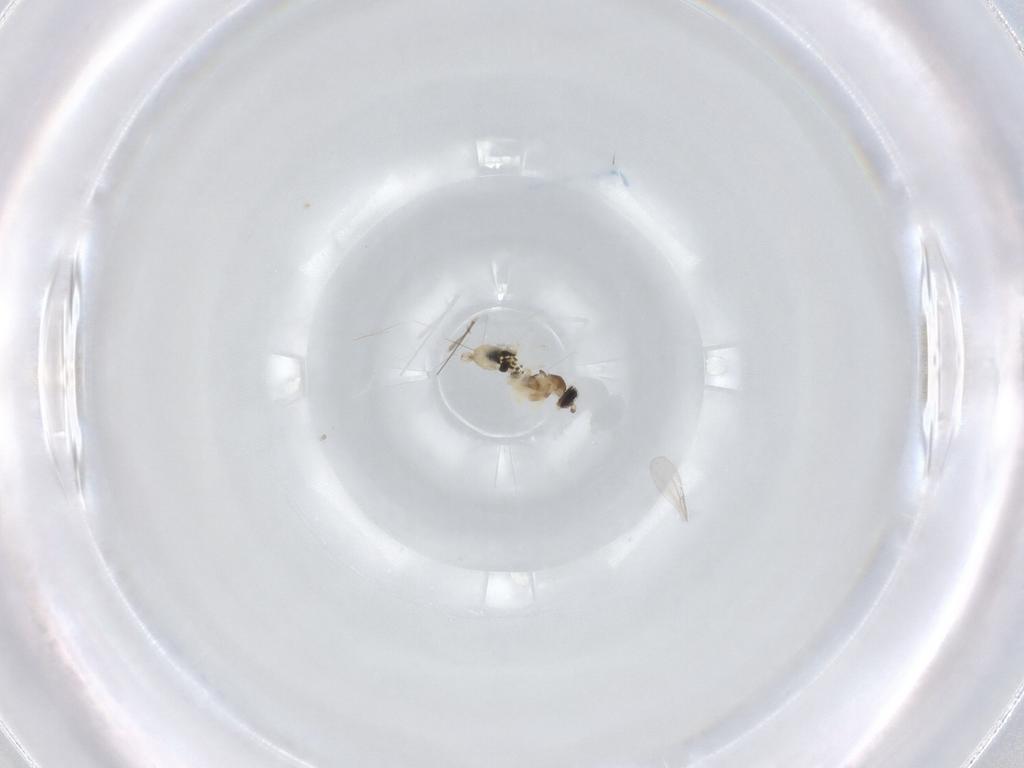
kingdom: Animalia
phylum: Arthropoda
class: Insecta
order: Diptera
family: Cecidomyiidae
